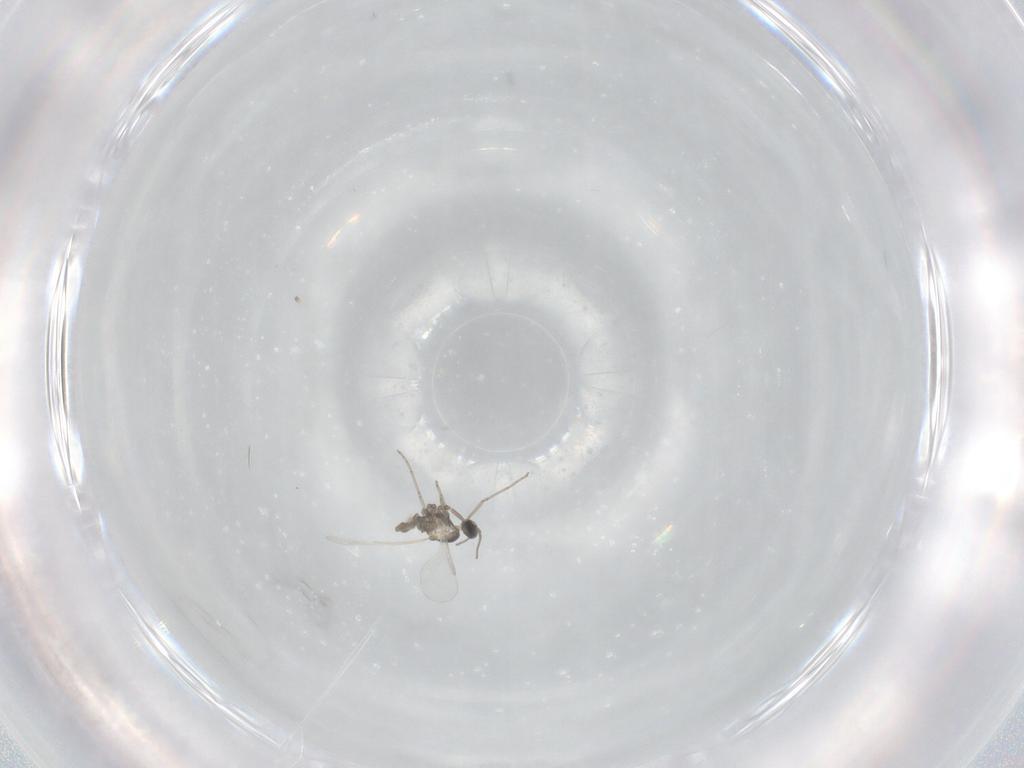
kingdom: Animalia
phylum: Arthropoda
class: Insecta
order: Diptera
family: Cecidomyiidae
